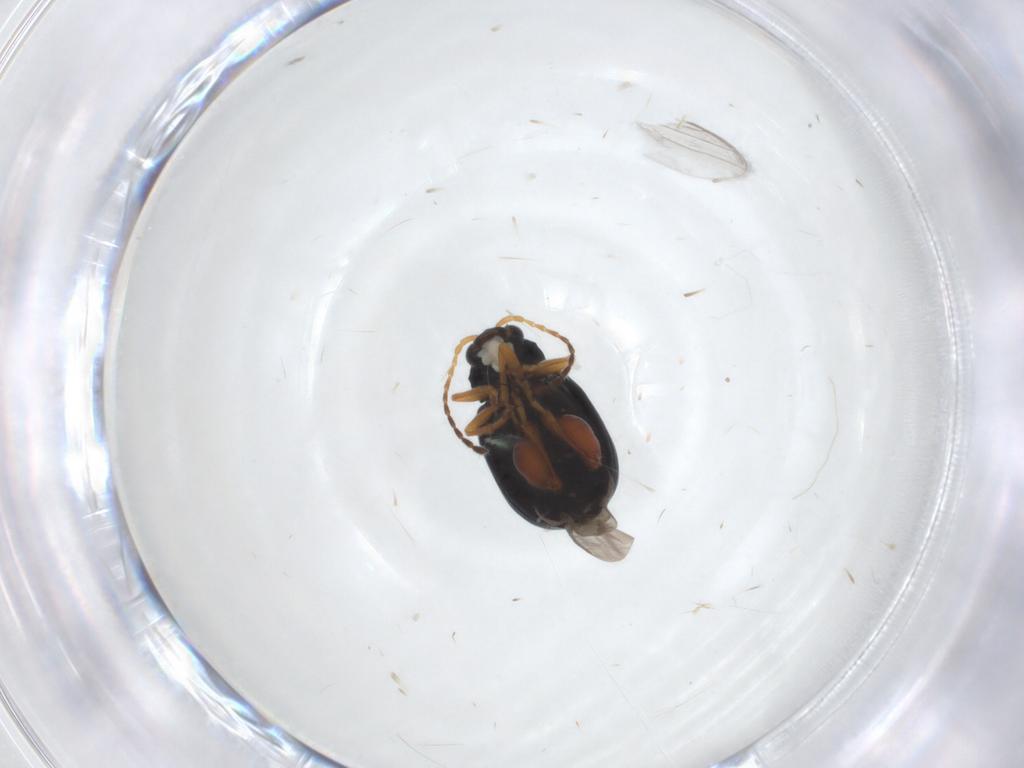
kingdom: Animalia
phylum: Arthropoda
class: Insecta
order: Coleoptera
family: Chrysomelidae
